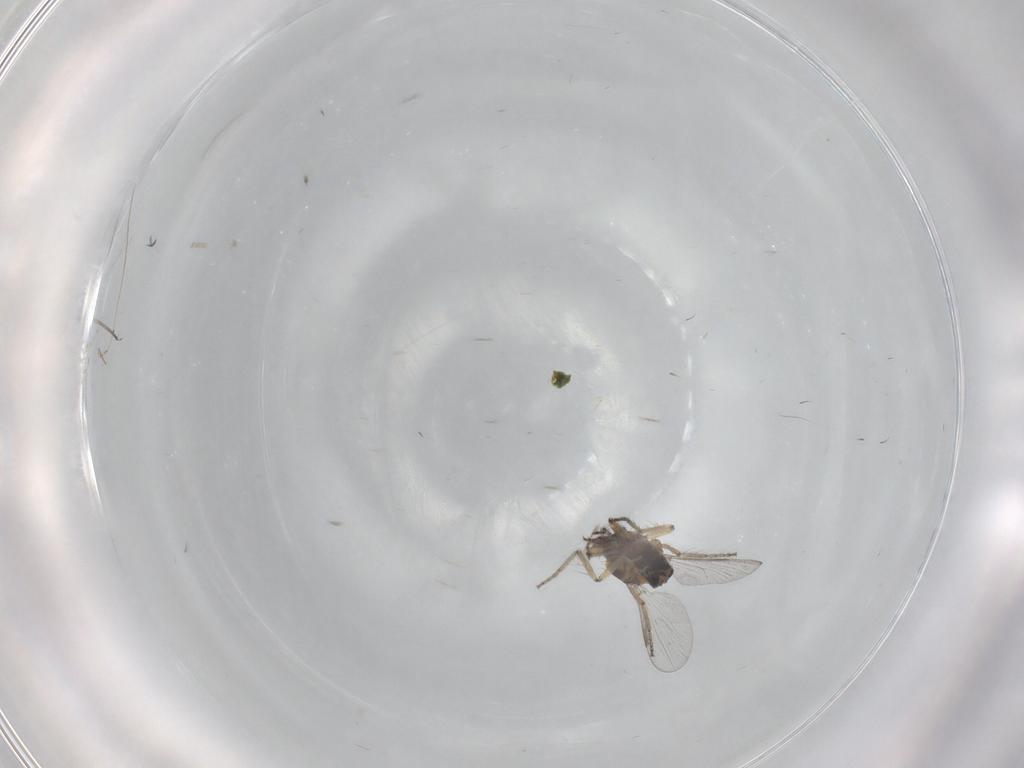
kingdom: Animalia
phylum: Arthropoda
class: Insecta
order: Diptera
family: Ceratopogonidae
